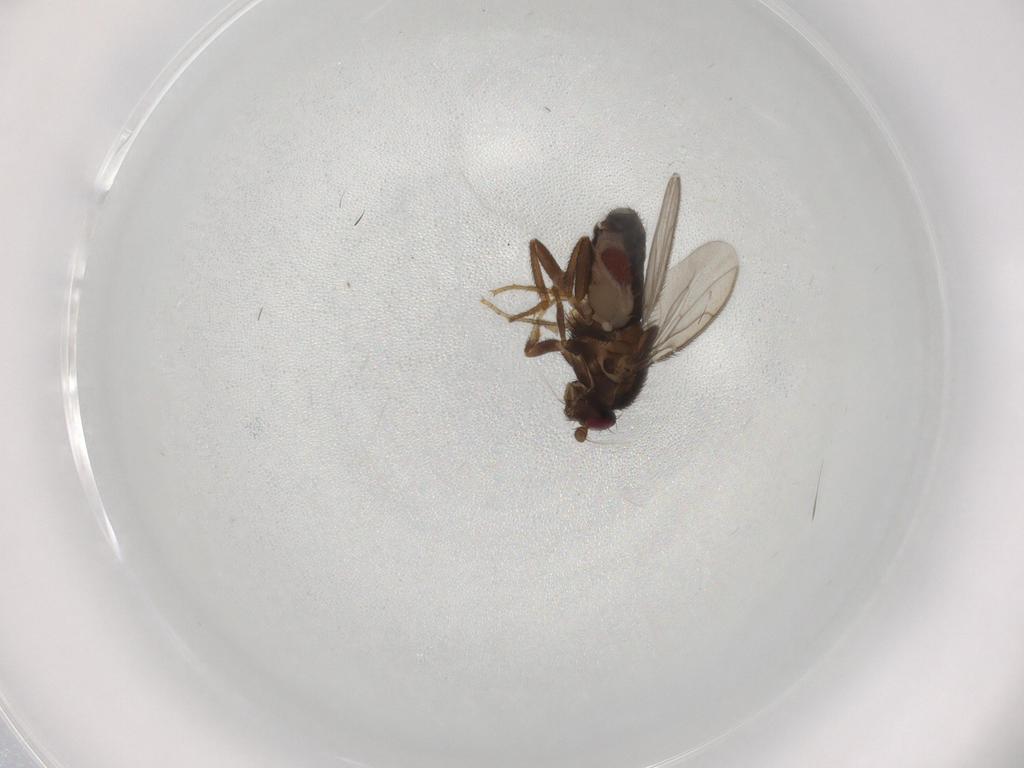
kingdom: Animalia
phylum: Arthropoda
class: Insecta
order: Diptera
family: Sphaeroceridae
